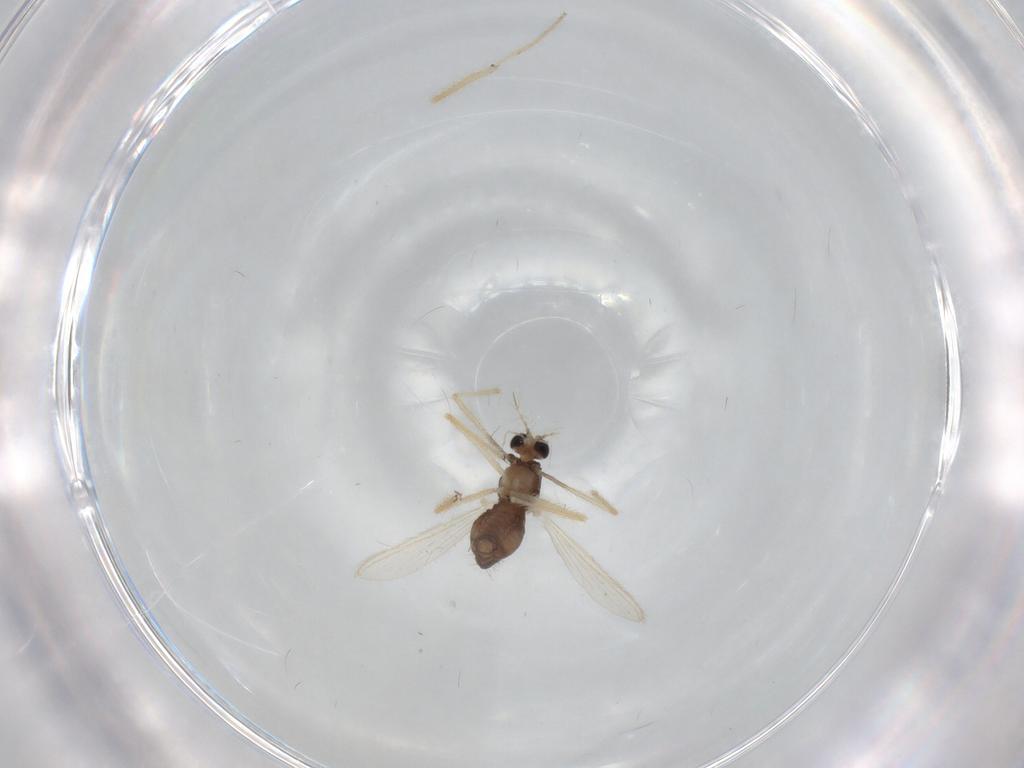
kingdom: Animalia
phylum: Arthropoda
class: Insecta
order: Diptera
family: Chironomidae
